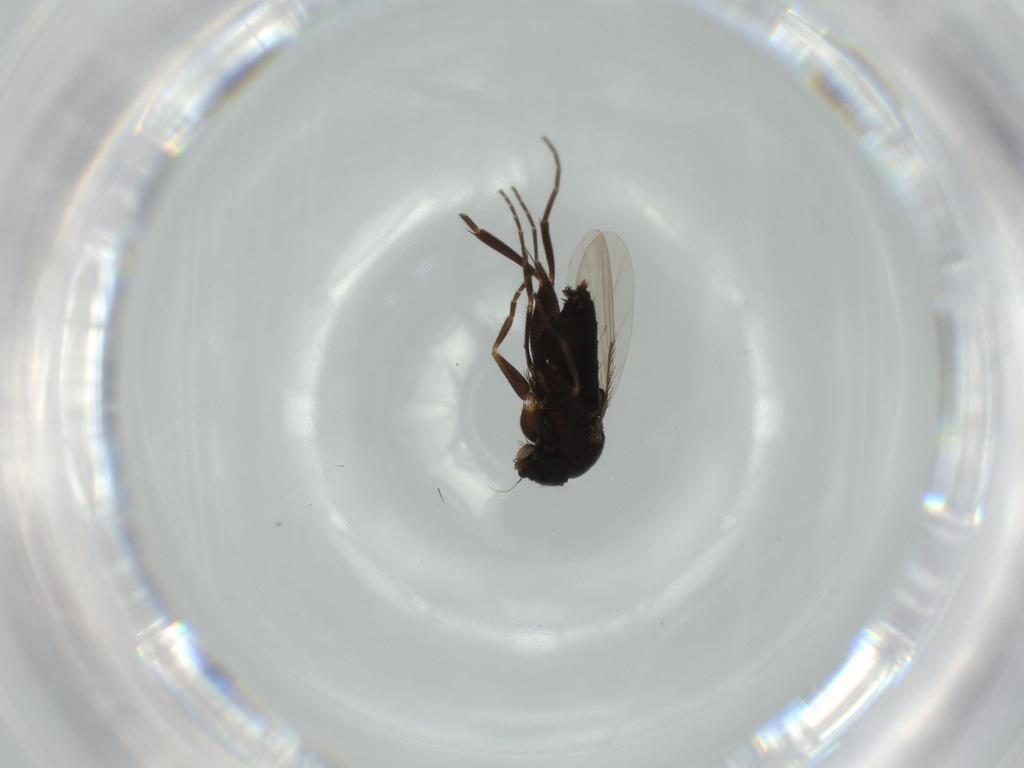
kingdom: Animalia
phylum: Arthropoda
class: Insecta
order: Diptera
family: Phoridae
